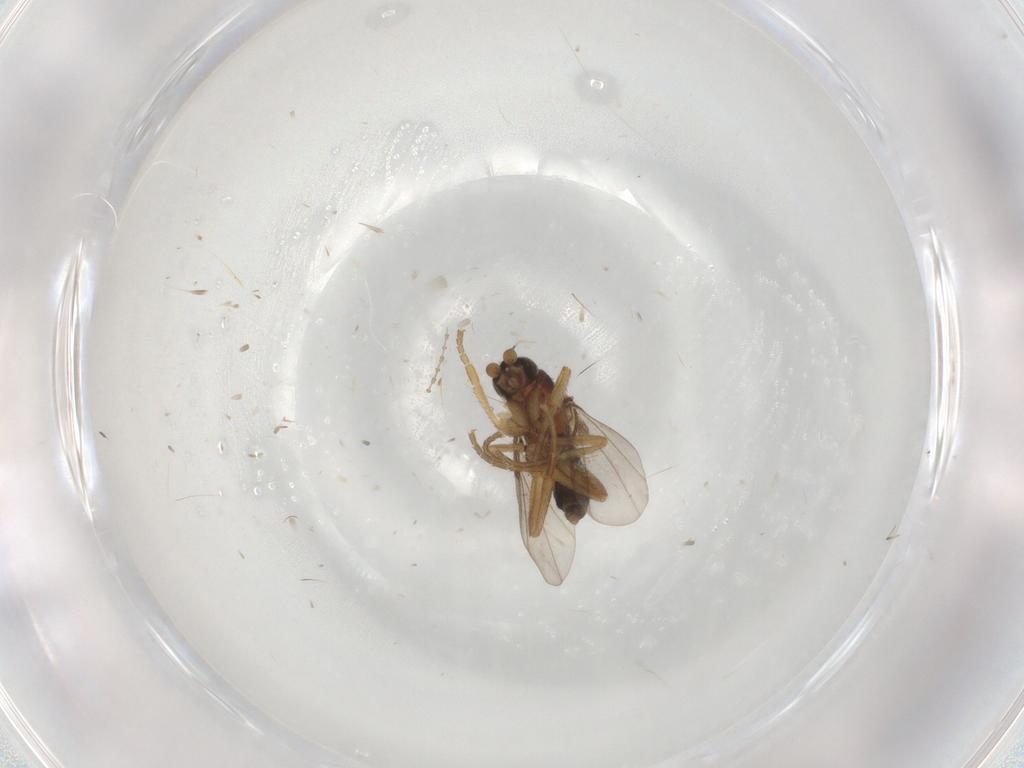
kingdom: Animalia
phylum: Arthropoda
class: Insecta
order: Diptera
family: Cecidomyiidae
